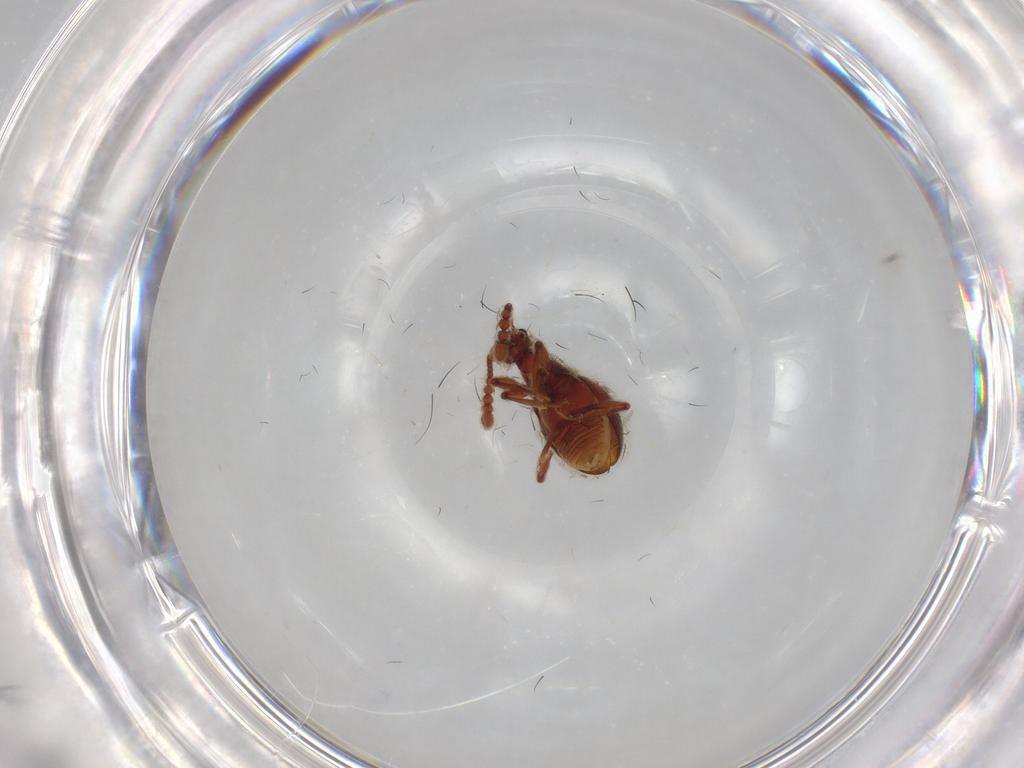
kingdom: Animalia
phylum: Arthropoda
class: Insecta
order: Coleoptera
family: Staphylinidae
